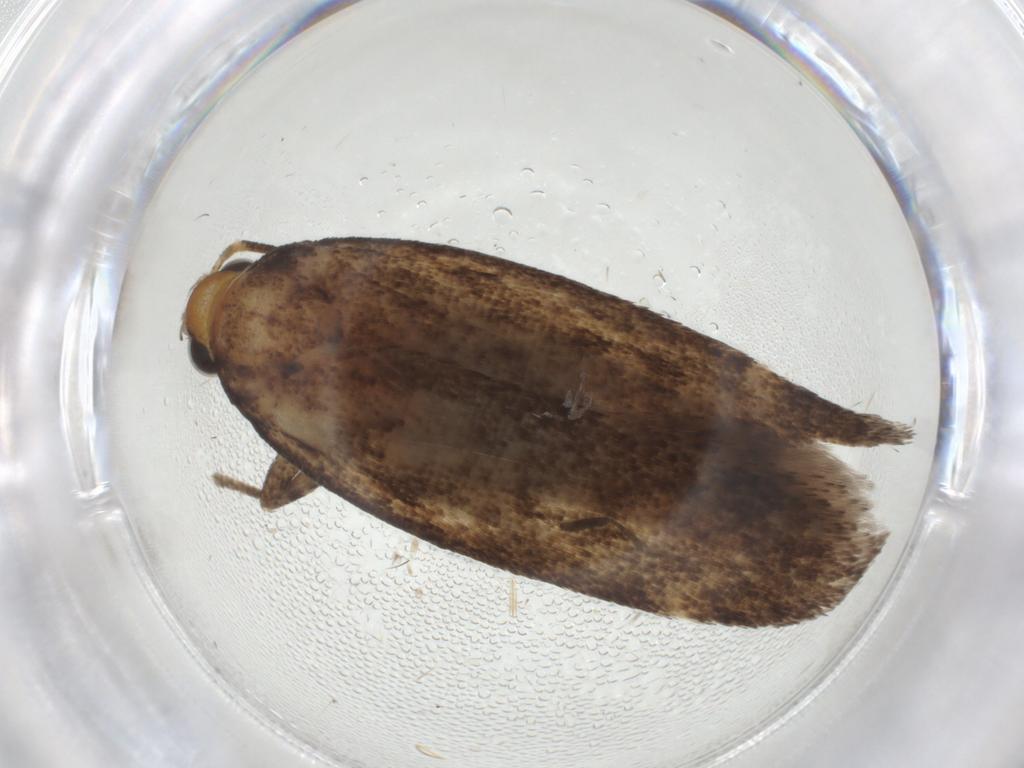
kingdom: Animalia
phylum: Arthropoda
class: Insecta
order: Lepidoptera
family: Gelechiidae
